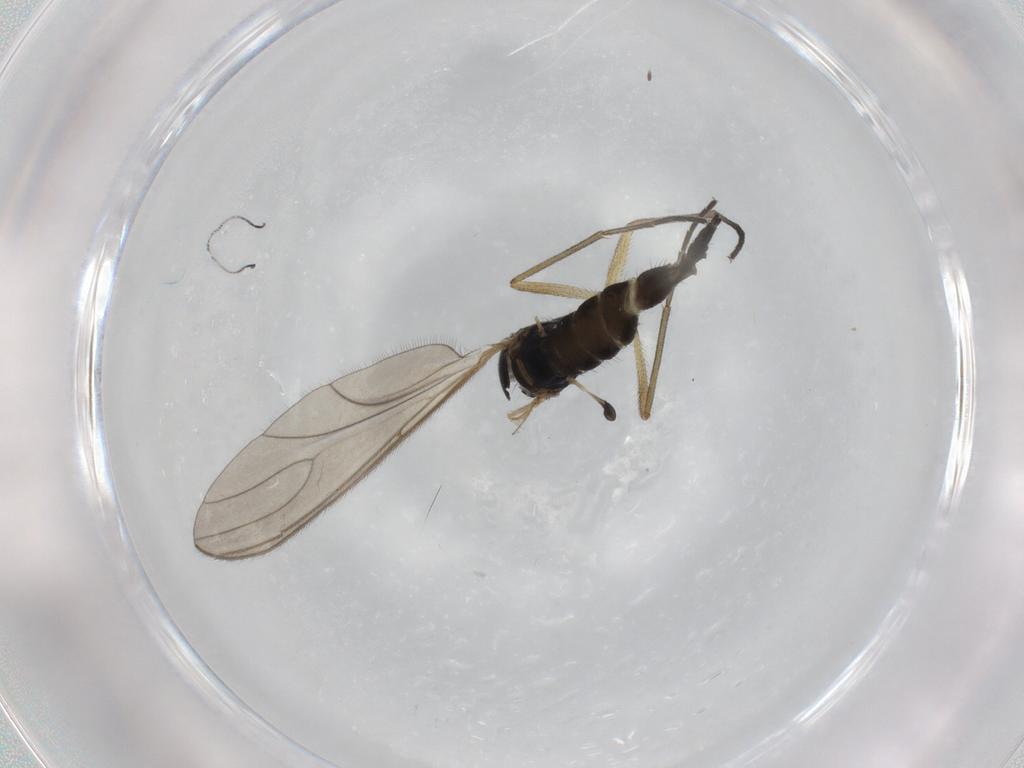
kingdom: Animalia
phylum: Arthropoda
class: Insecta
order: Diptera
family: Sciaridae
